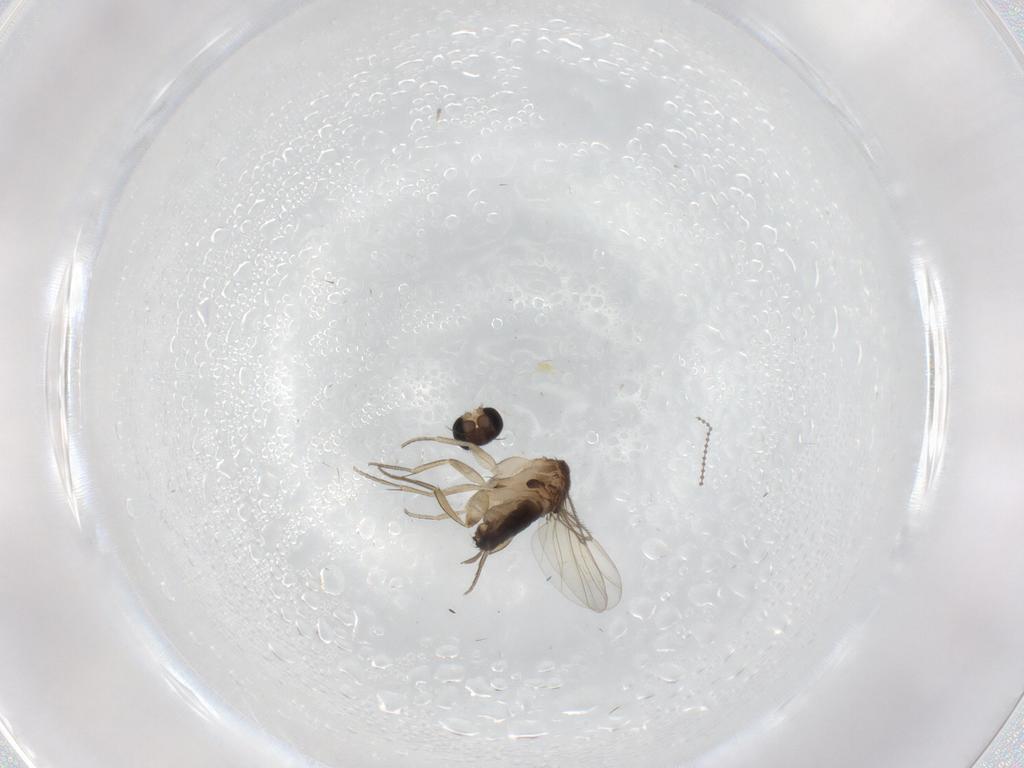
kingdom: Animalia
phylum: Arthropoda
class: Insecta
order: Diptera
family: Cecidomyiidae
